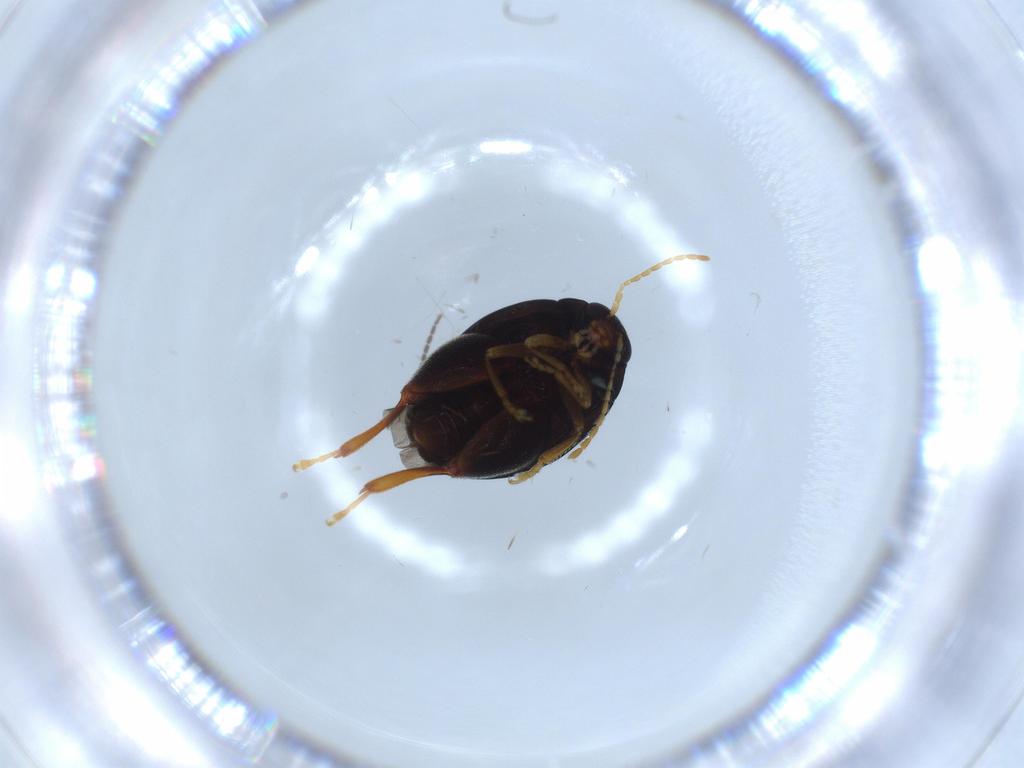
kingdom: Animalia
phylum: Arthropoda
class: Insecta
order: Coleoptera
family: Chrysomelidae
